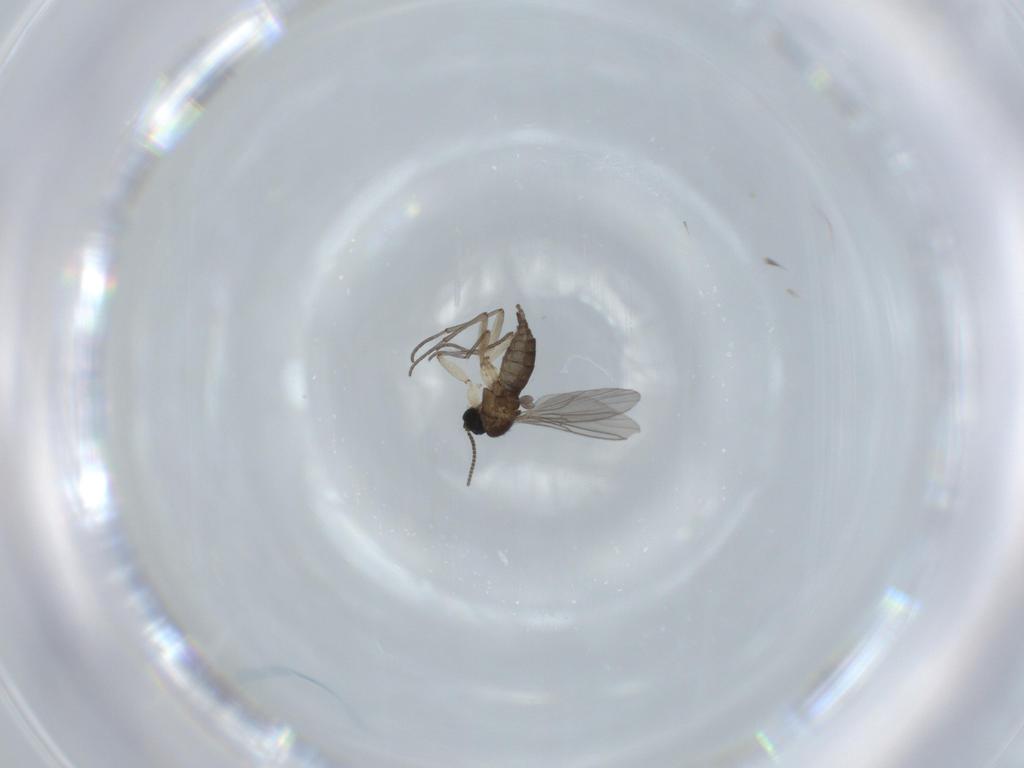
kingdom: Animalia
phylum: Arthropoda
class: Insecta
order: Diptera
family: Sciaridae
